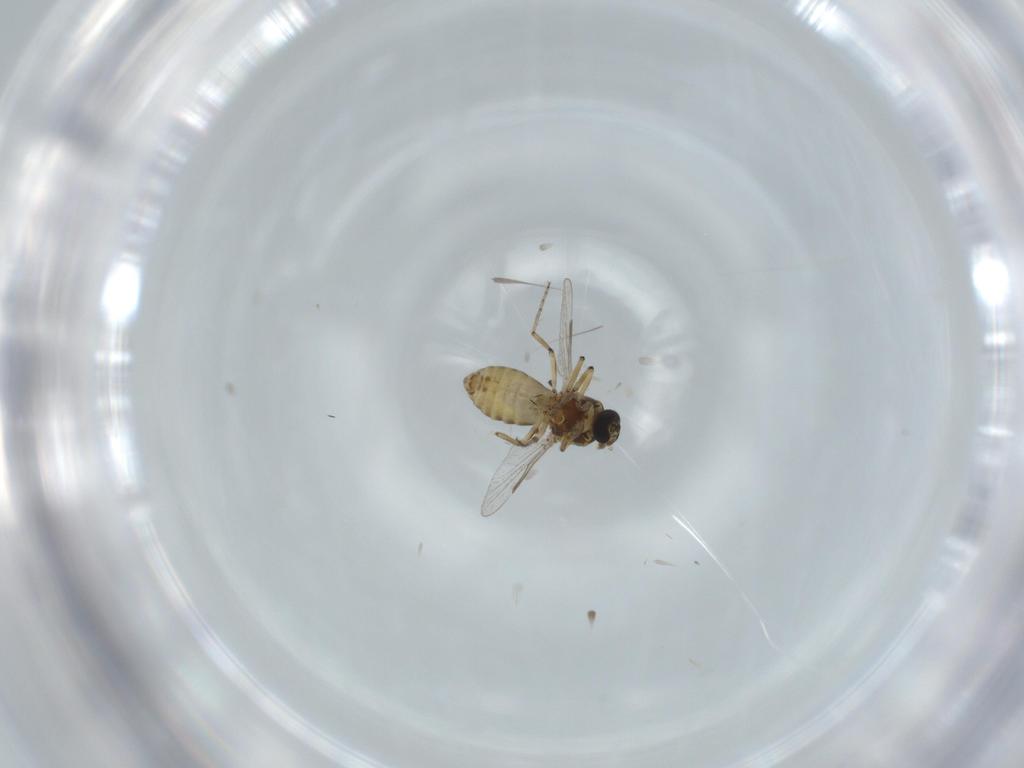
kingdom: Animalia
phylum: Arthropoda
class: Insecta
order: Diptera
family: Ceratopogonidae
